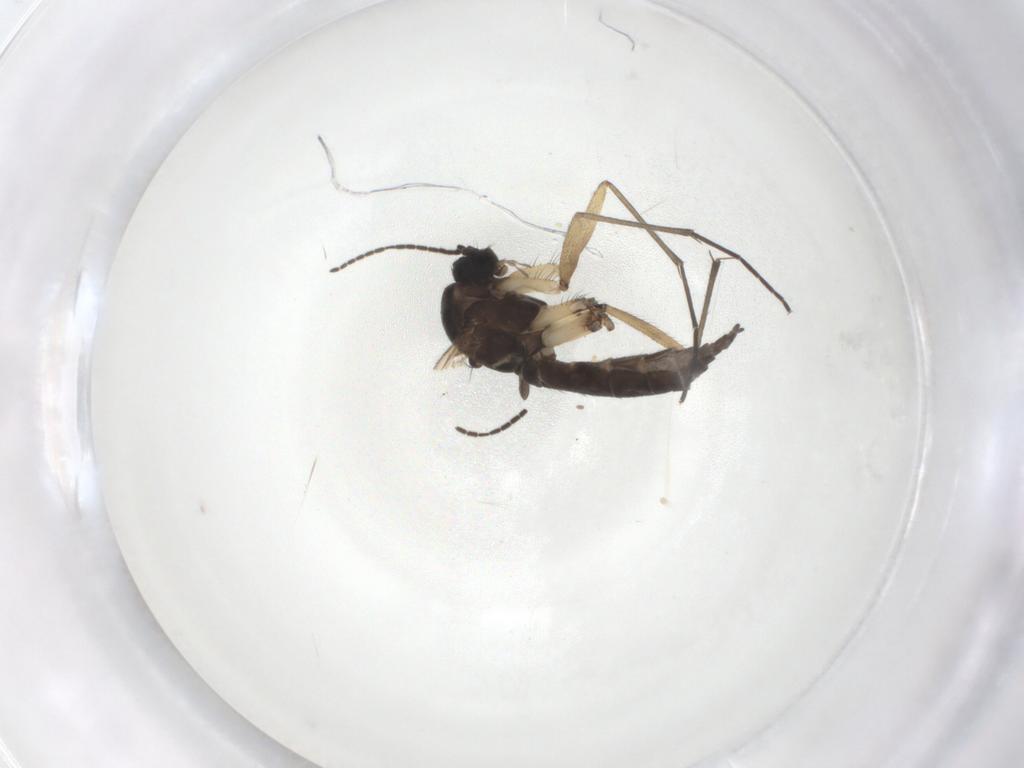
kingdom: Animalia
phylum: Arthropoda
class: Insecta
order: Diptera
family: Sciaridae
